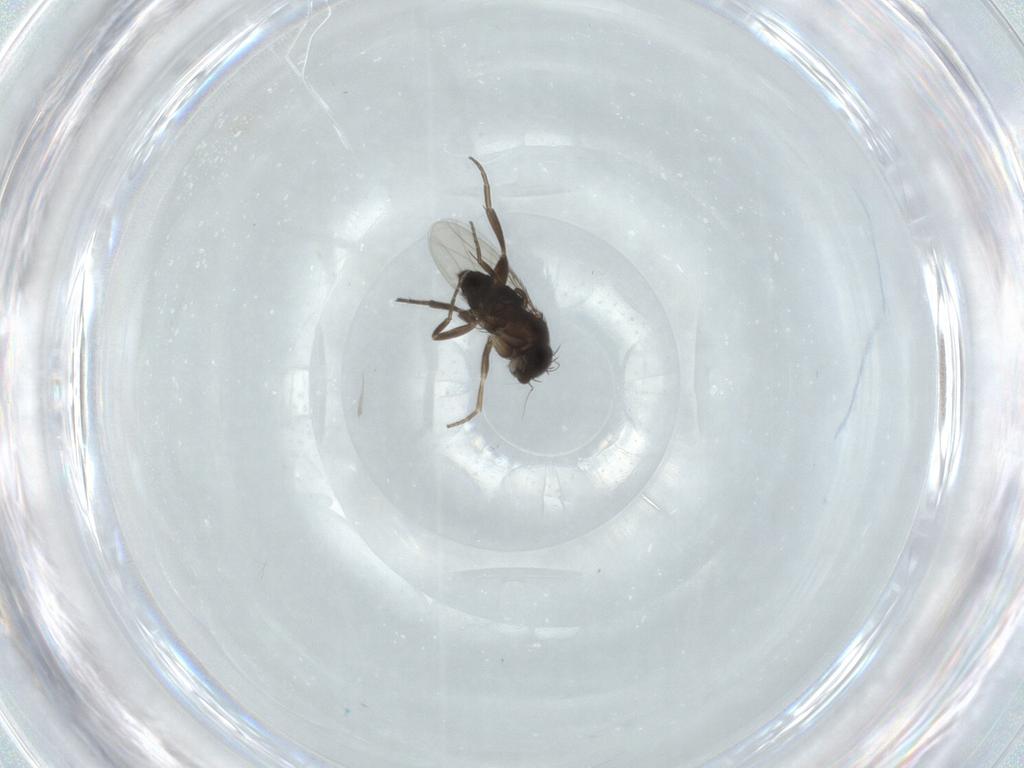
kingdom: Animalia
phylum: Arthropoda
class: Insecta
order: Diptera
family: Phoridae
